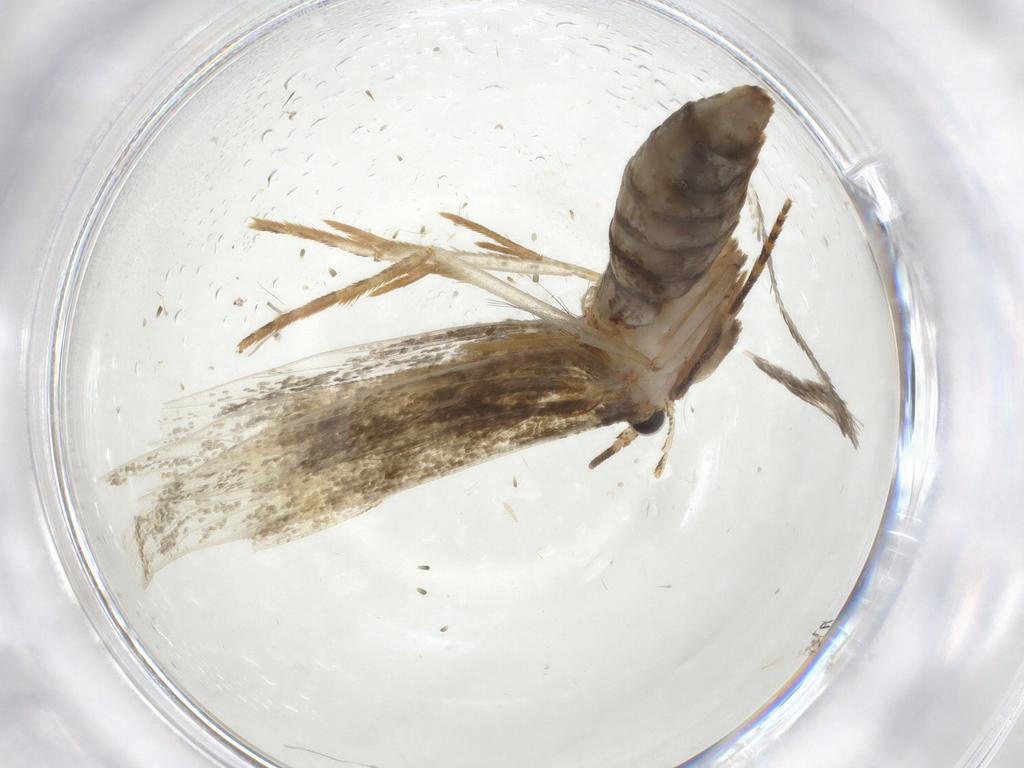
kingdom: Animalia
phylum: Arthropoda
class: Insecta
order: Lepidoptera
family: Tineidae
